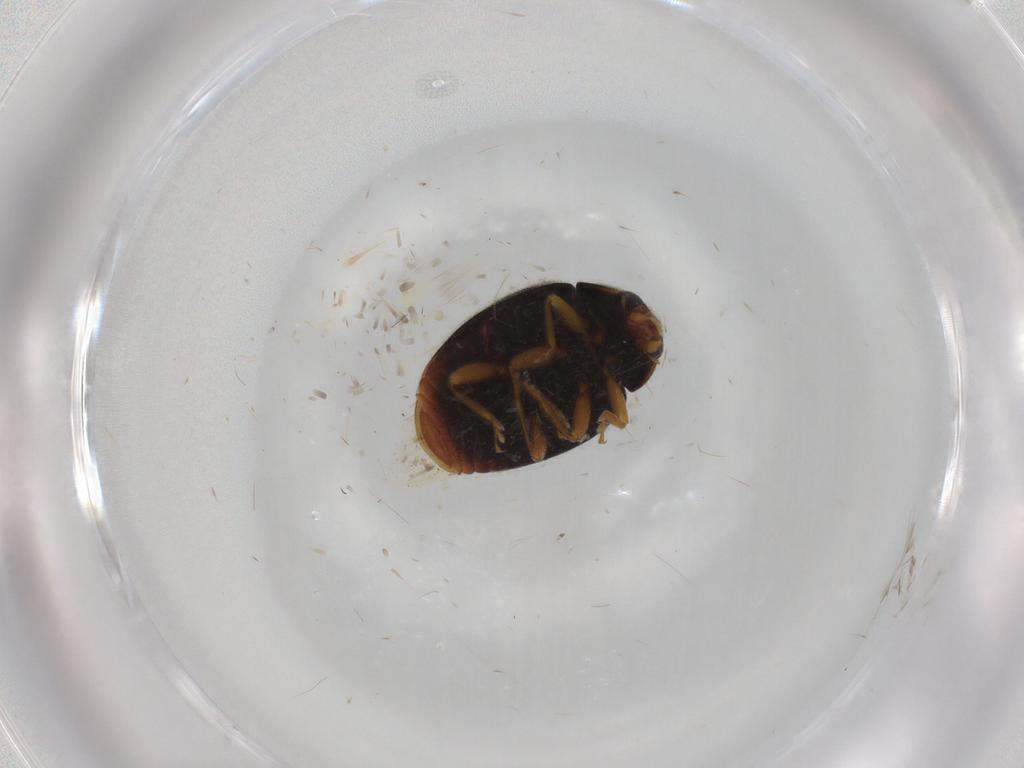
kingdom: Animalia
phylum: Arthropoda
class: Insecta
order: Coleoptera
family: Coccinellidae
